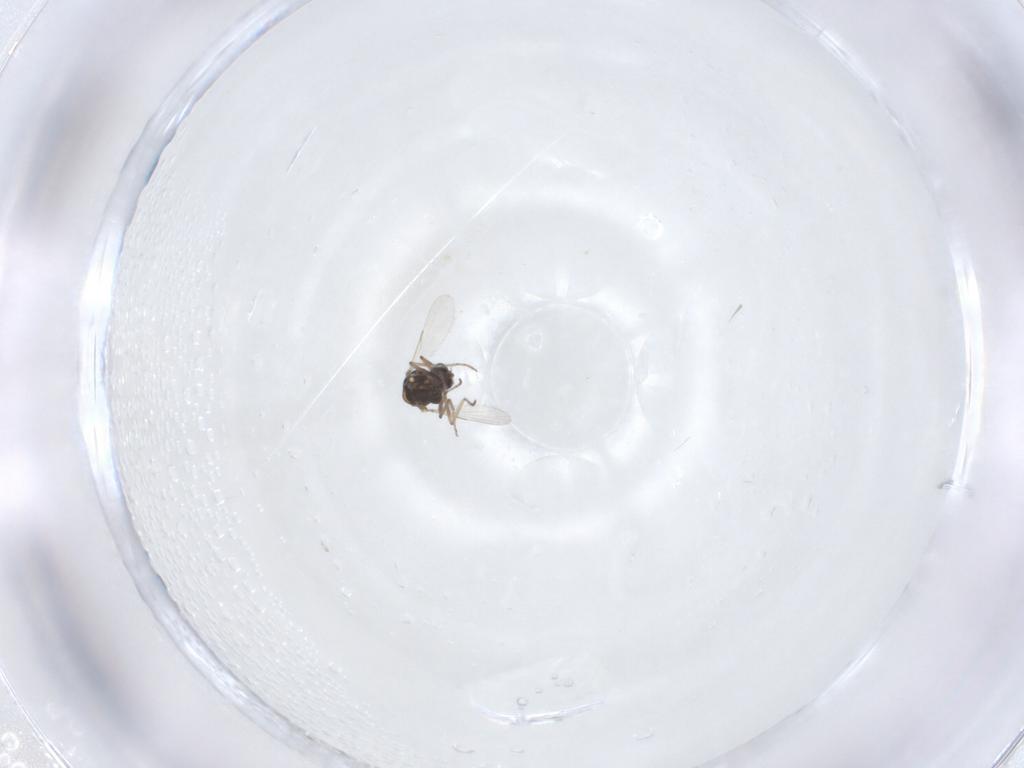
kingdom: Animalia
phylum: Arthropoda
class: Insecta
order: Diptera
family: Ceratopogonidae
